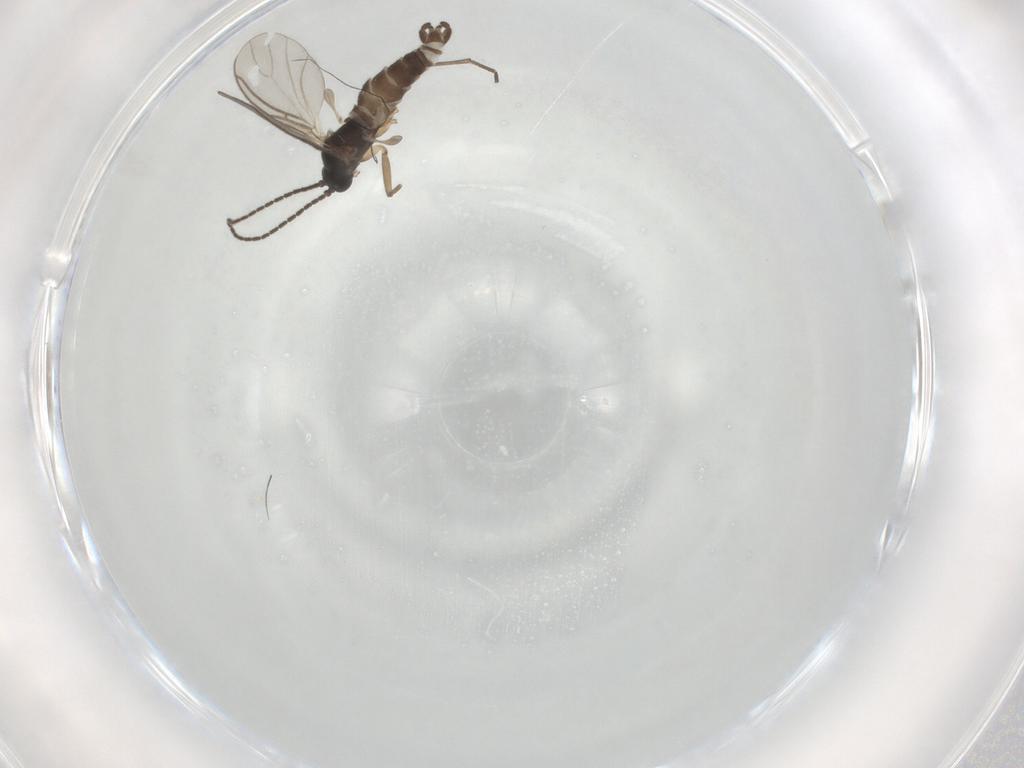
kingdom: Animalia
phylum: Arthropoda
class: Insecta
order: Diptera
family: Sciaridae
